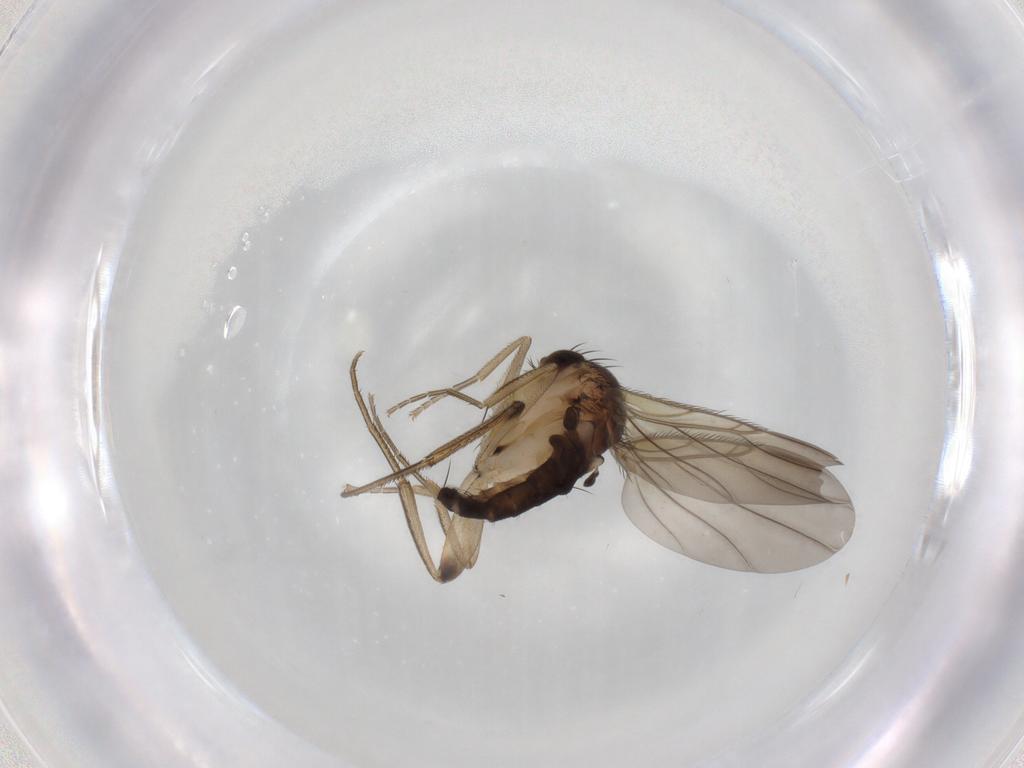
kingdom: Animalia
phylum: Arthropoda
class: Insecta
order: Diptera
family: Phoridae
